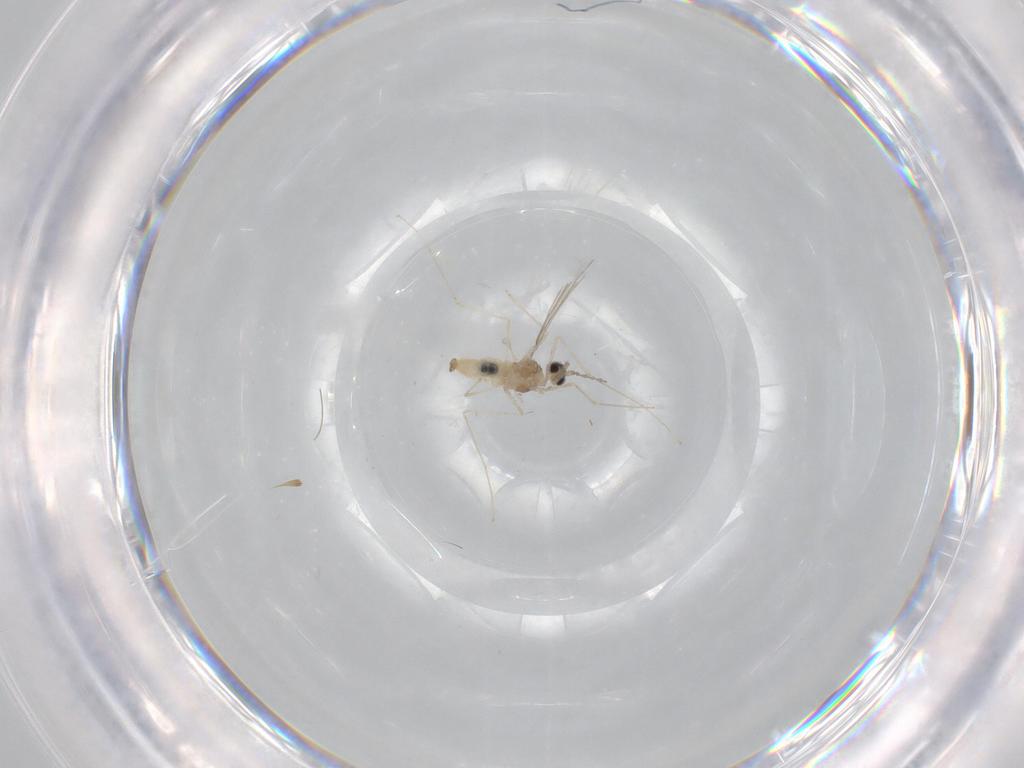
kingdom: Animalia
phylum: Arthropoda
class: Insecta
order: Diptera
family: Cecidomyiidae
